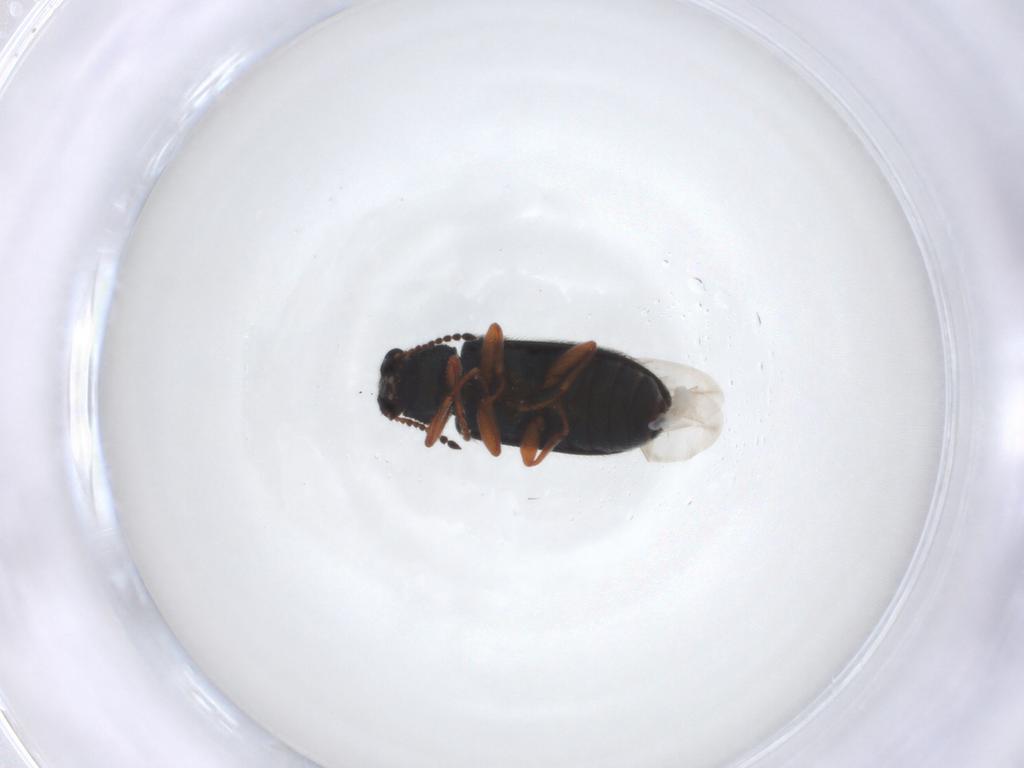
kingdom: Animalia
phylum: Arthropoda
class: Insecta
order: Coleoptera
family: Melyridae
